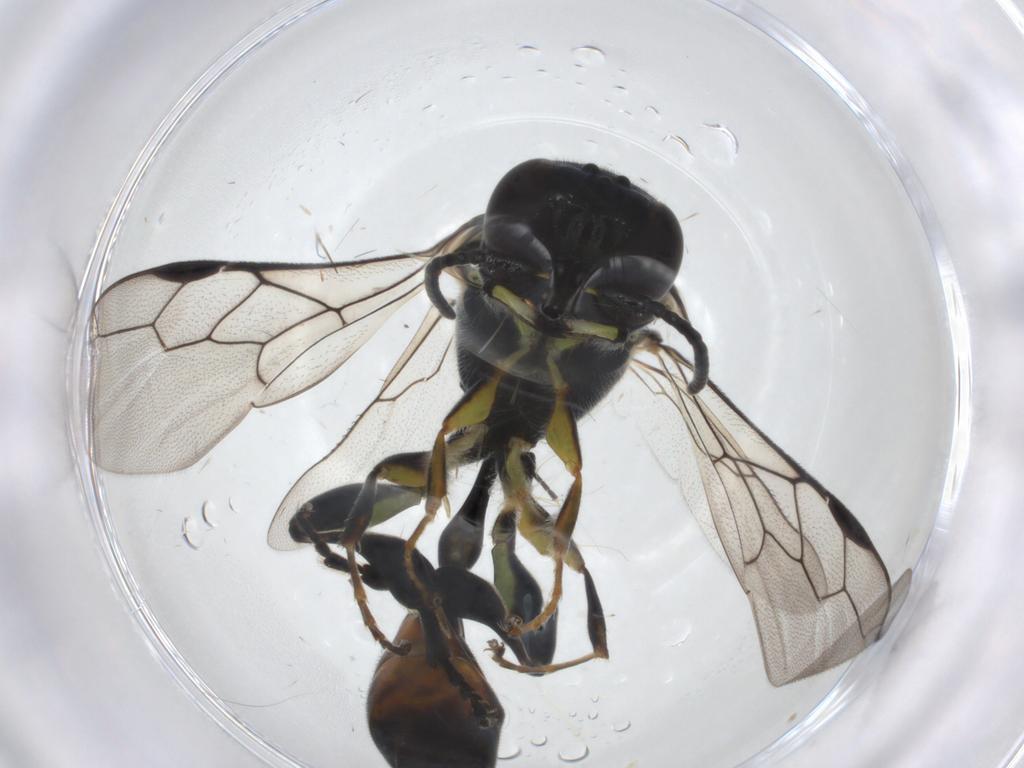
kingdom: Animalia
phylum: Arthropoda
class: Insecta
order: Hymenoptera
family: Crabronidae
